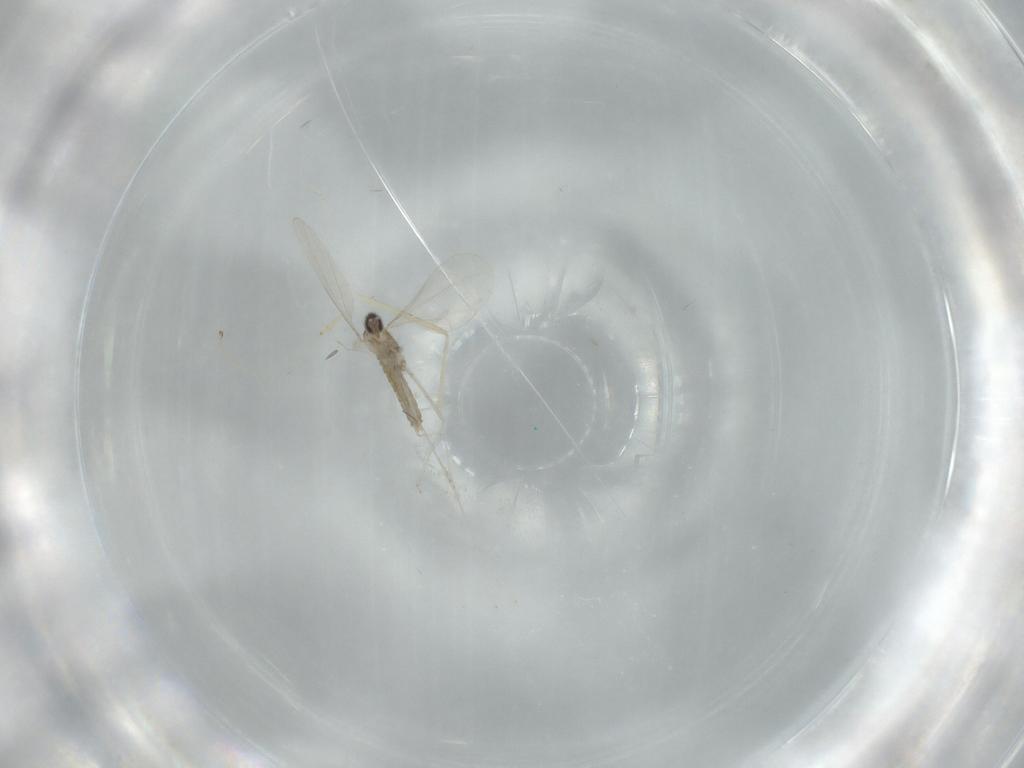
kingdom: Animalia
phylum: Arthropoda
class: Insecta
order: Diptera
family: Cecidomyiidae
